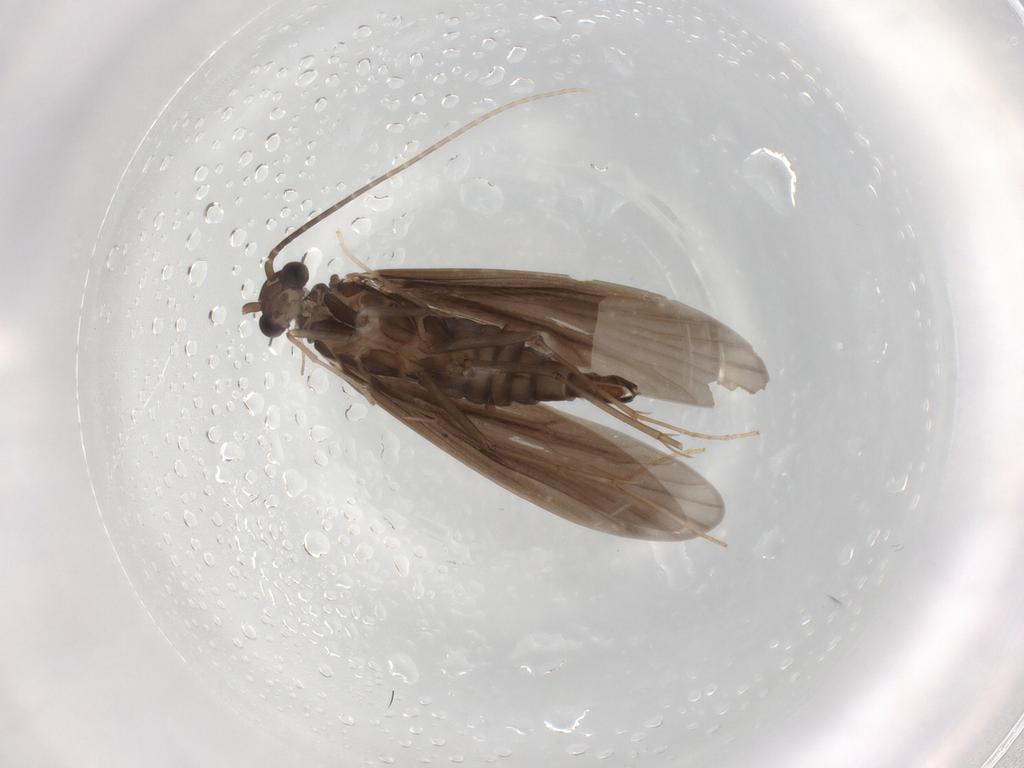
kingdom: Animalia
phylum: Arthropoda
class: Insecta
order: Trichoptera
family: Xiphocentronidae
